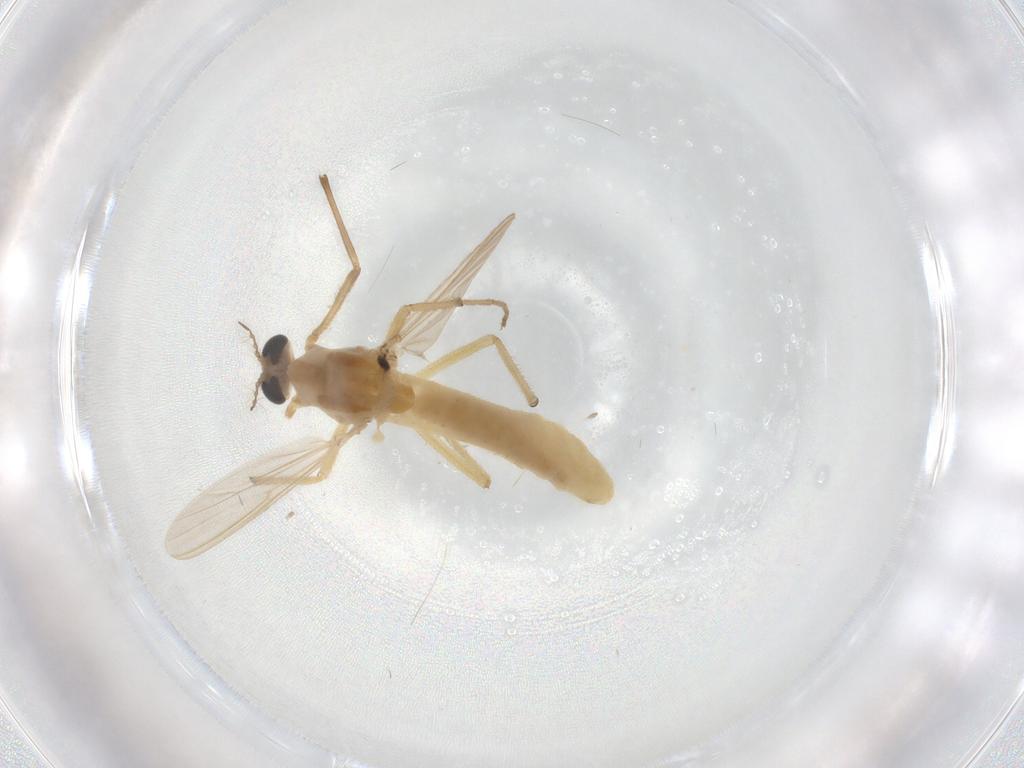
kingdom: Animalia
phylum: Arthropoda
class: Insecta
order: Diptera
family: Chironomidae
